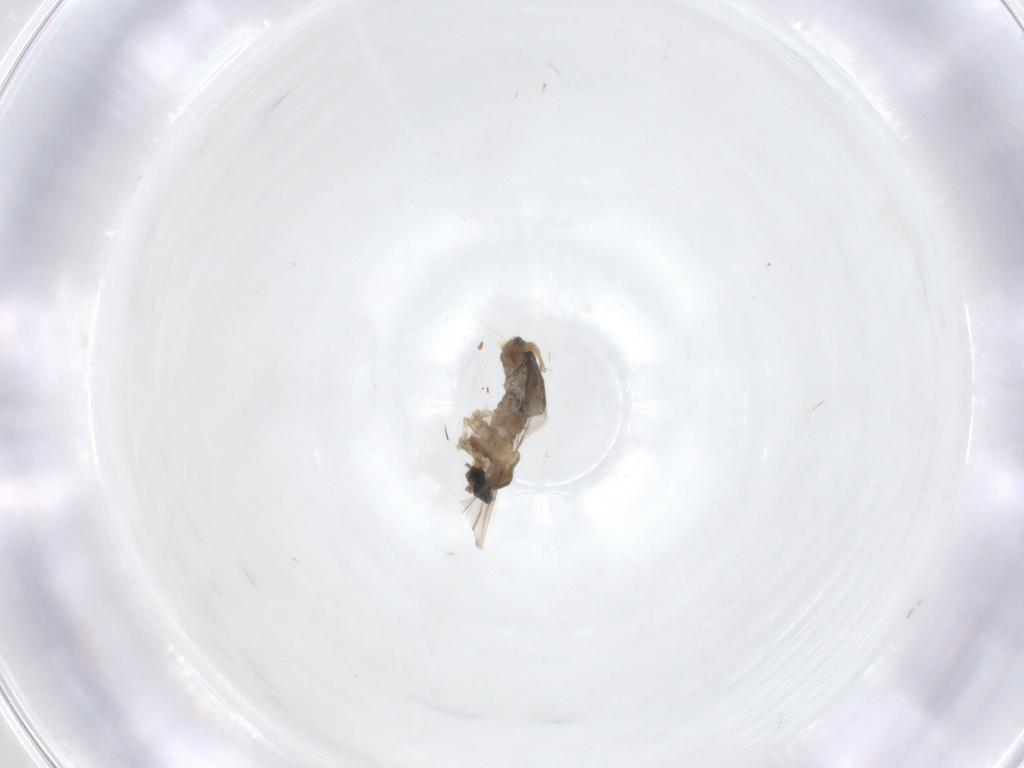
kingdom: Animalia
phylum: Arthropoda
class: Insecta
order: Diptera
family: Cecidomyiidae
